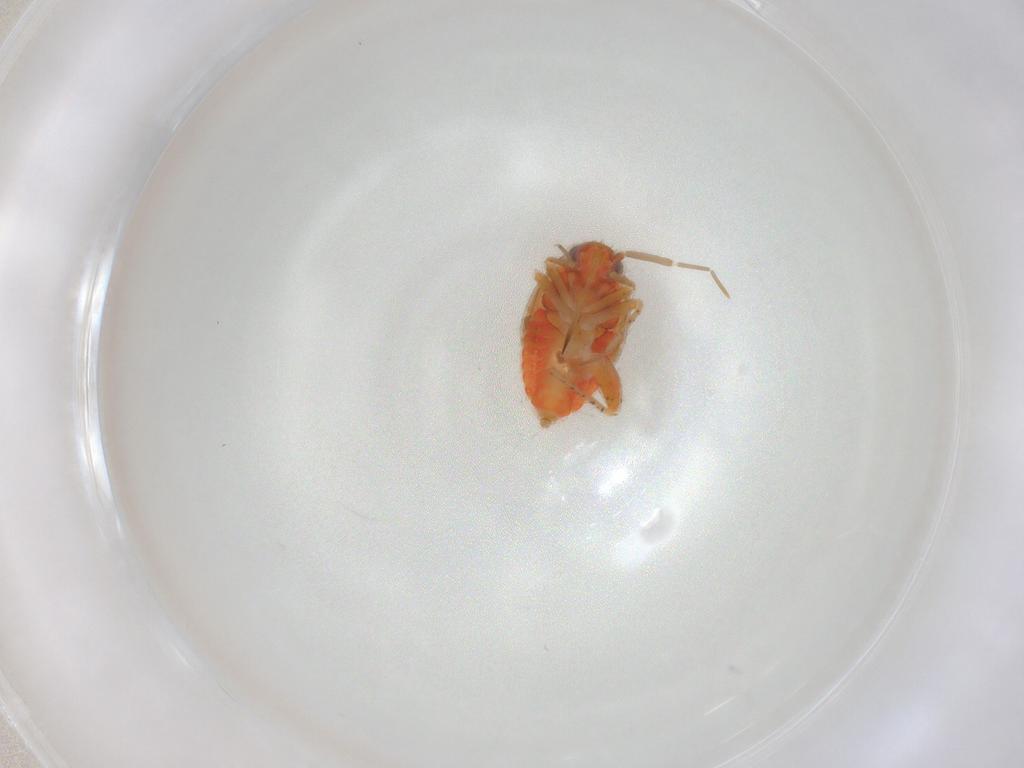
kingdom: Animalia
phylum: Arthropoda
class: Insecta
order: Hemiptera
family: Miridae
